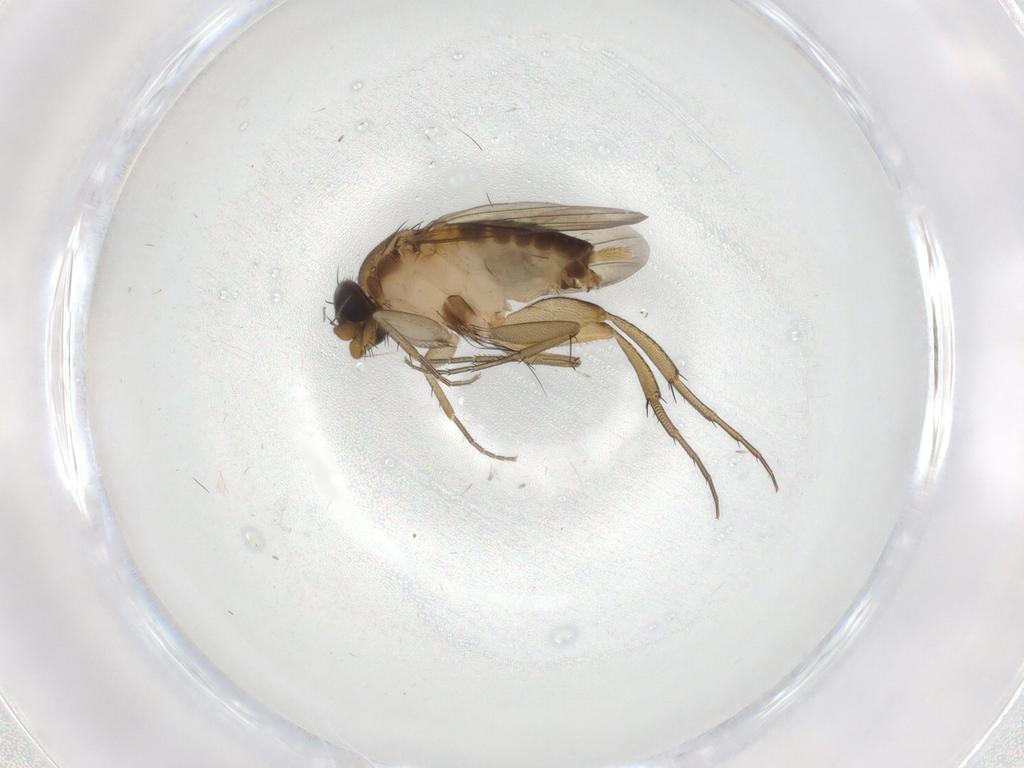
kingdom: Animalia
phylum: Arthropoda
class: Insecta
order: Diptera
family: Phoridae
